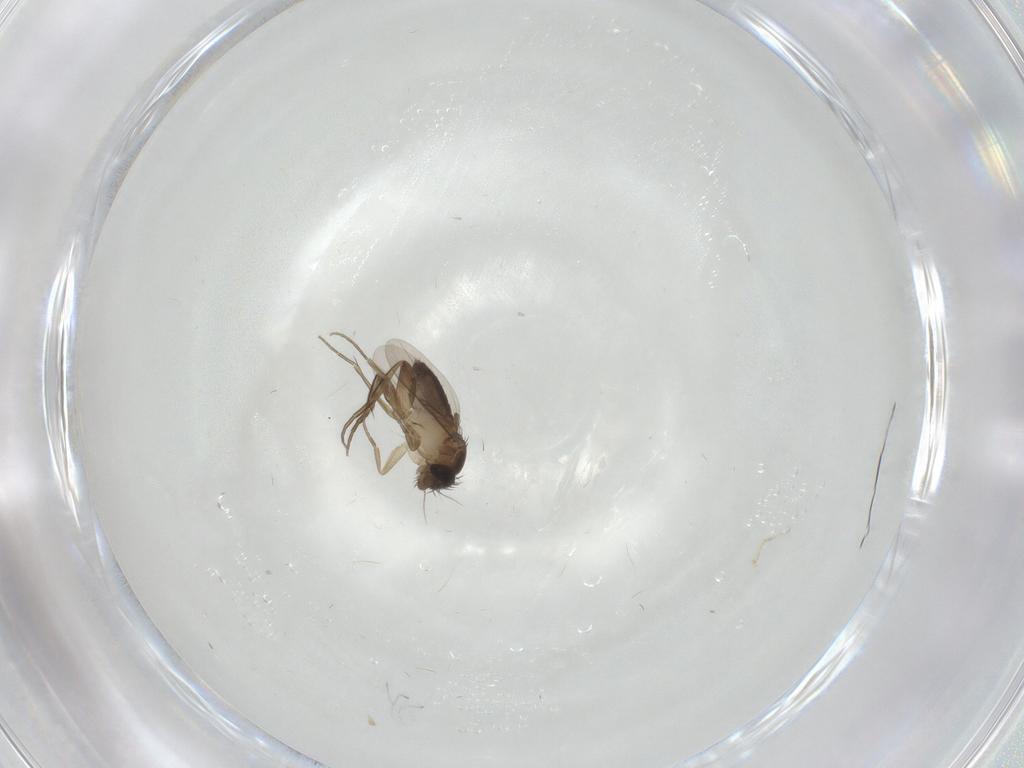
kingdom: Animalia
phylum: Arthropoda
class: Insecta
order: Diptera
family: Phoridae
